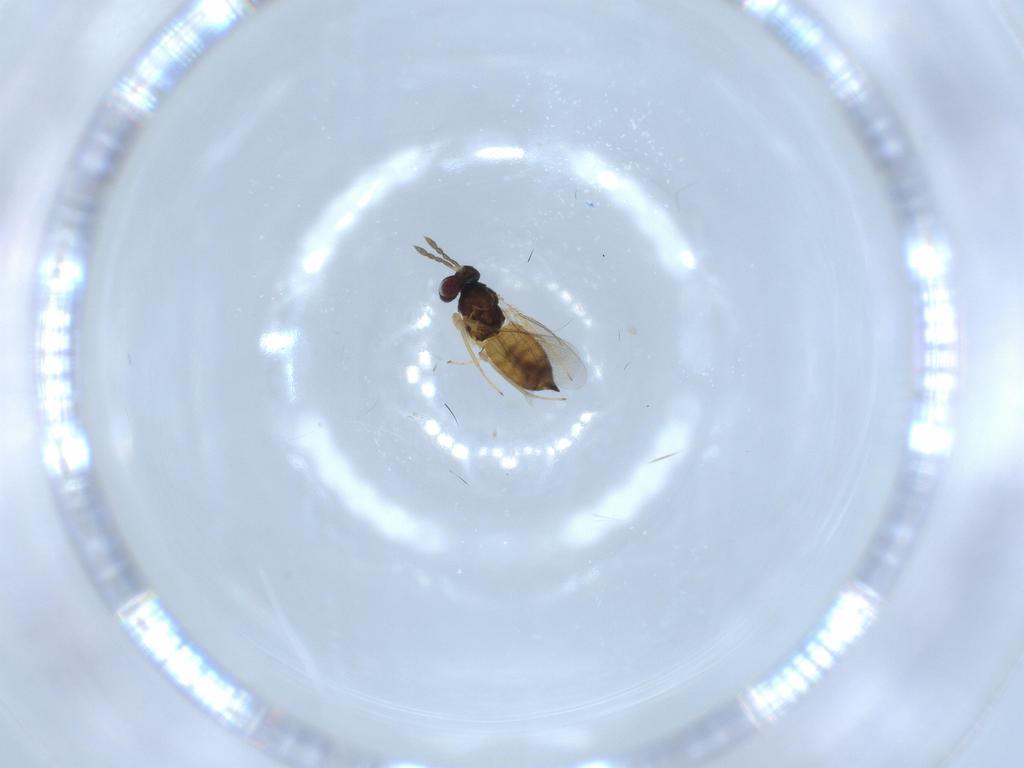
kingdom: Animalia
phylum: Arthropoda
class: Insecta
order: Hymenoptera
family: Eulophidae
